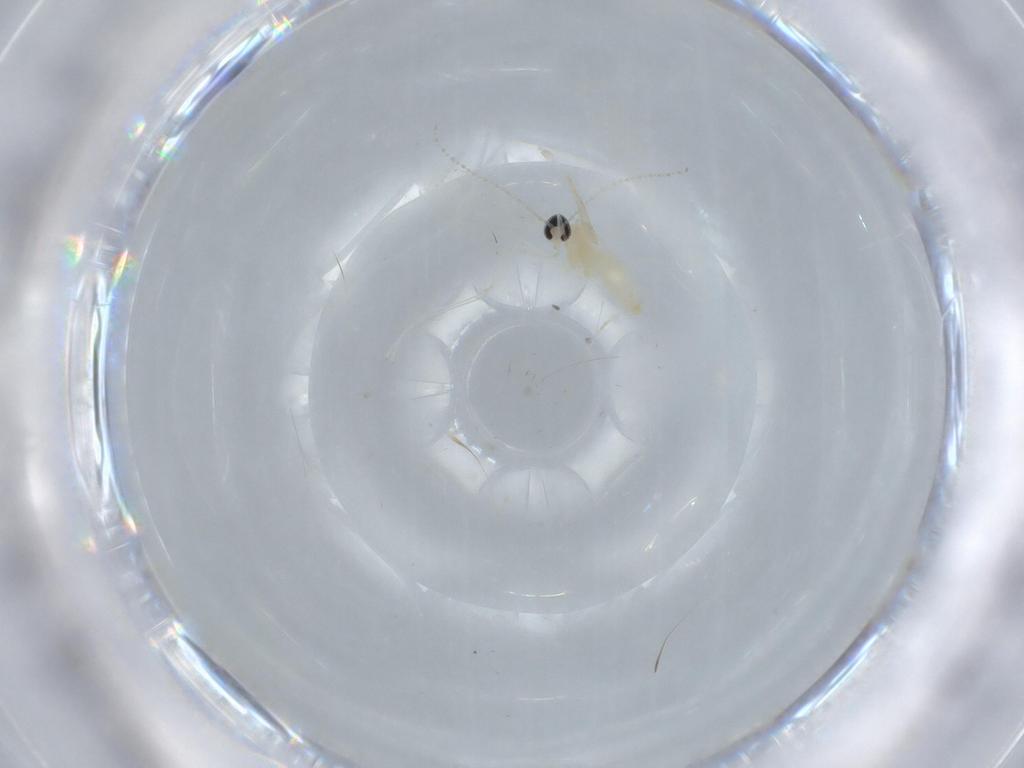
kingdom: Animalia
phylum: Arthropoda
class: Insecta
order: Diptera
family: Cecidomyiidae
